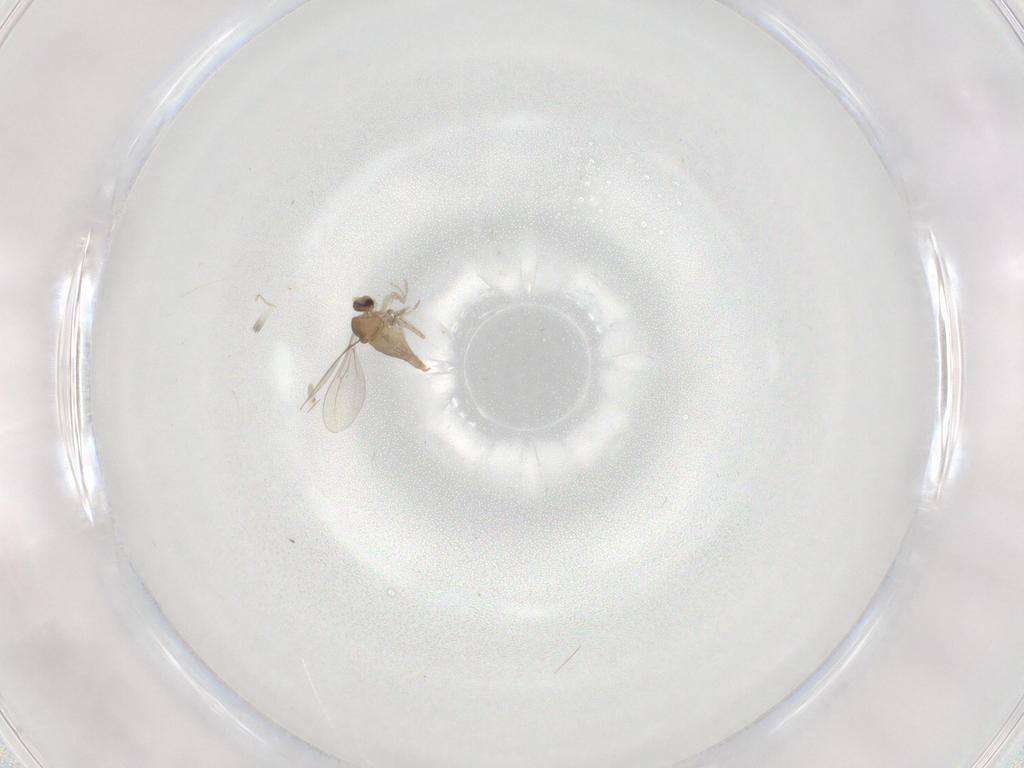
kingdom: Animalia
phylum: Arthropoda
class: Insecta
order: Diptera
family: Cecidomyiidae
